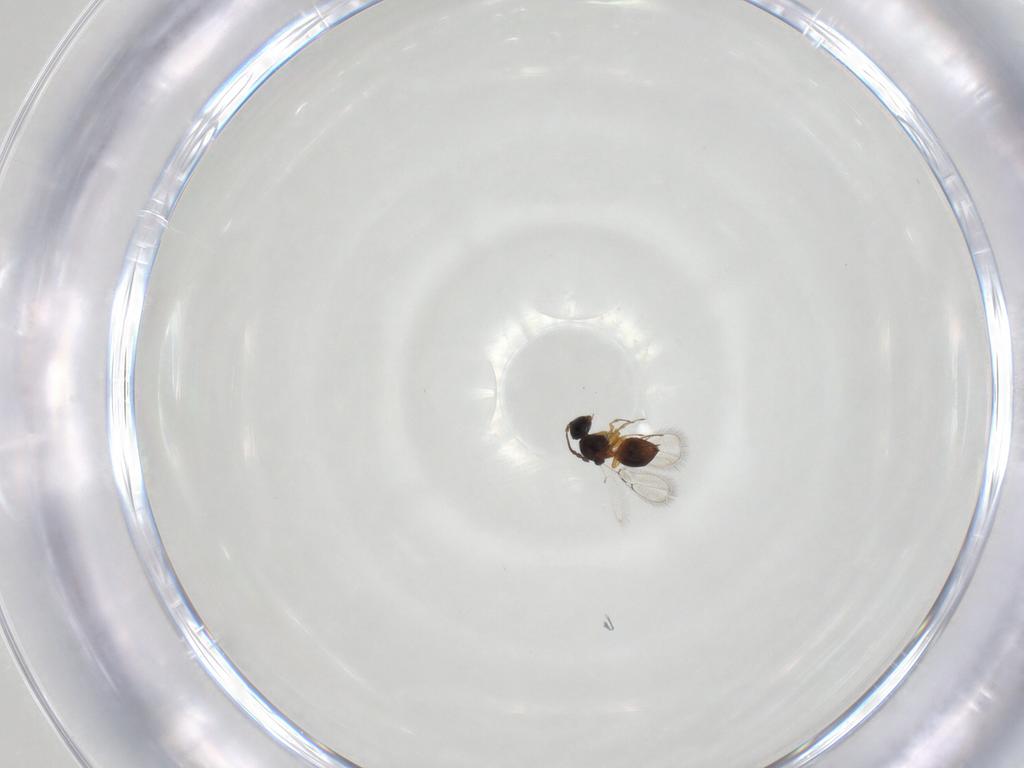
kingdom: Animalia
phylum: Arthropoda
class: Insecta
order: Hymenoptera
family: Figitidae
